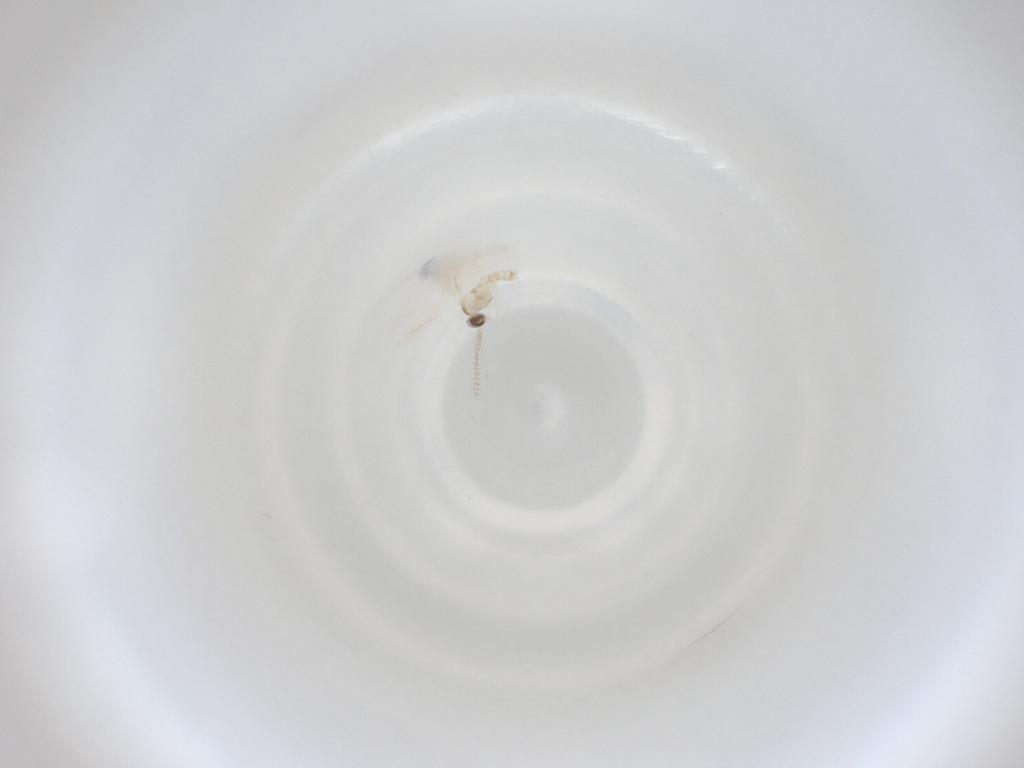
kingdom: Animalia
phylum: Arthropoda
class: Insecta
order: Diptera
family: Cecidomyiidae
